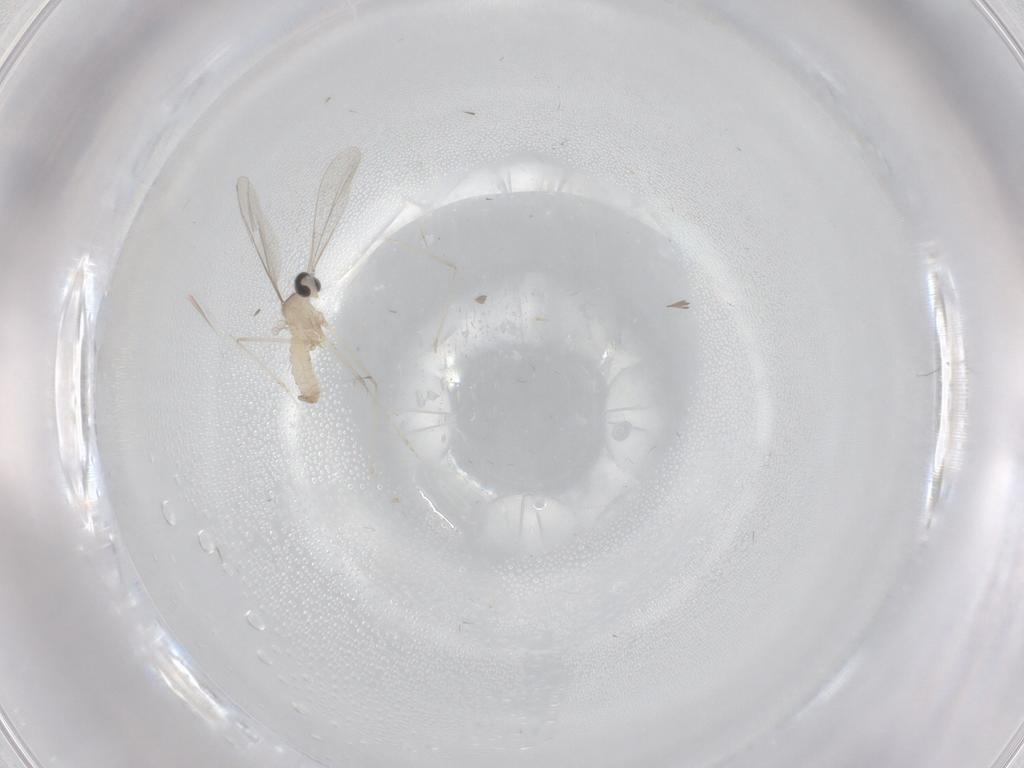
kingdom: Animalia
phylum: Arthropoda
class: Insecta
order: Diptera
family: Cecidomyiidae
